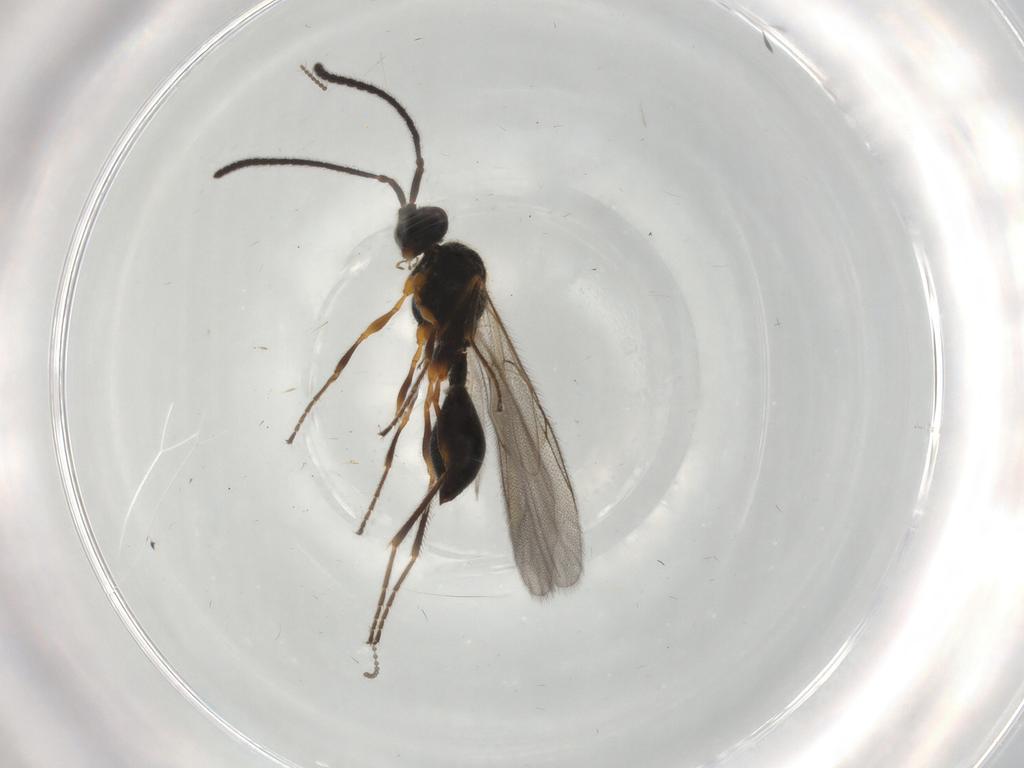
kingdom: Animalia
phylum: Arthropoda
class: Insecta
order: Hymenoptera
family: Diapriidae
